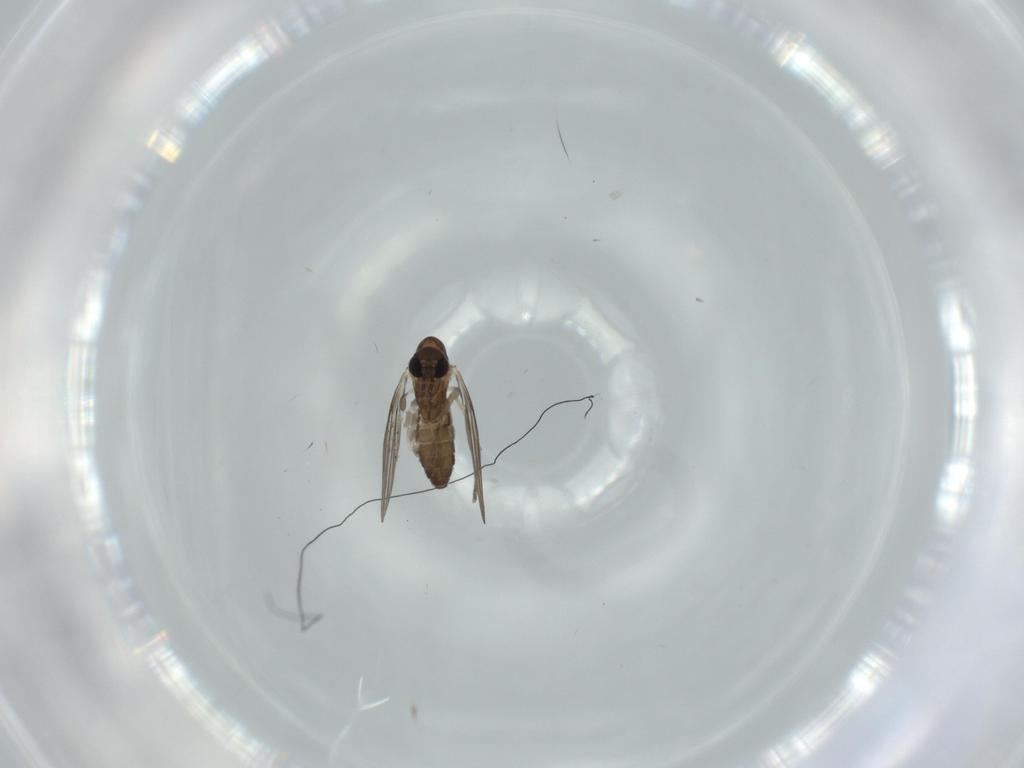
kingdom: Animalia
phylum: Arthropoda
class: Insecta
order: Diptera
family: Psychodidae
